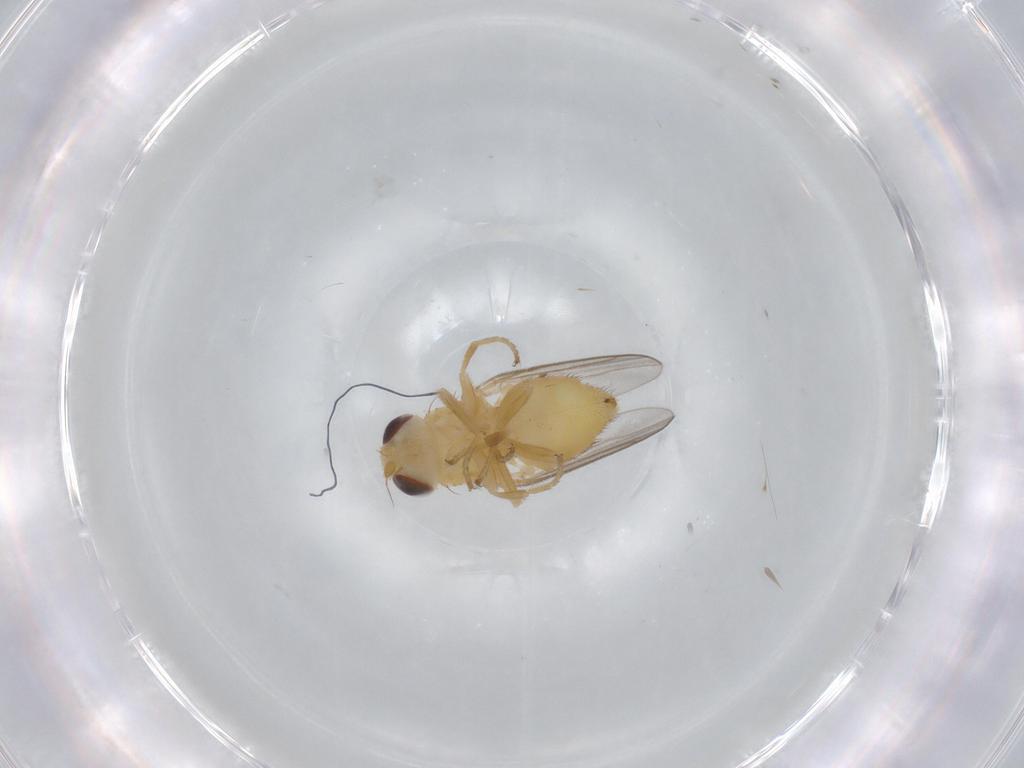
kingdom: Animalia
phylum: Arthropoda
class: Insecta
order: Diptera
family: Chloropidae
